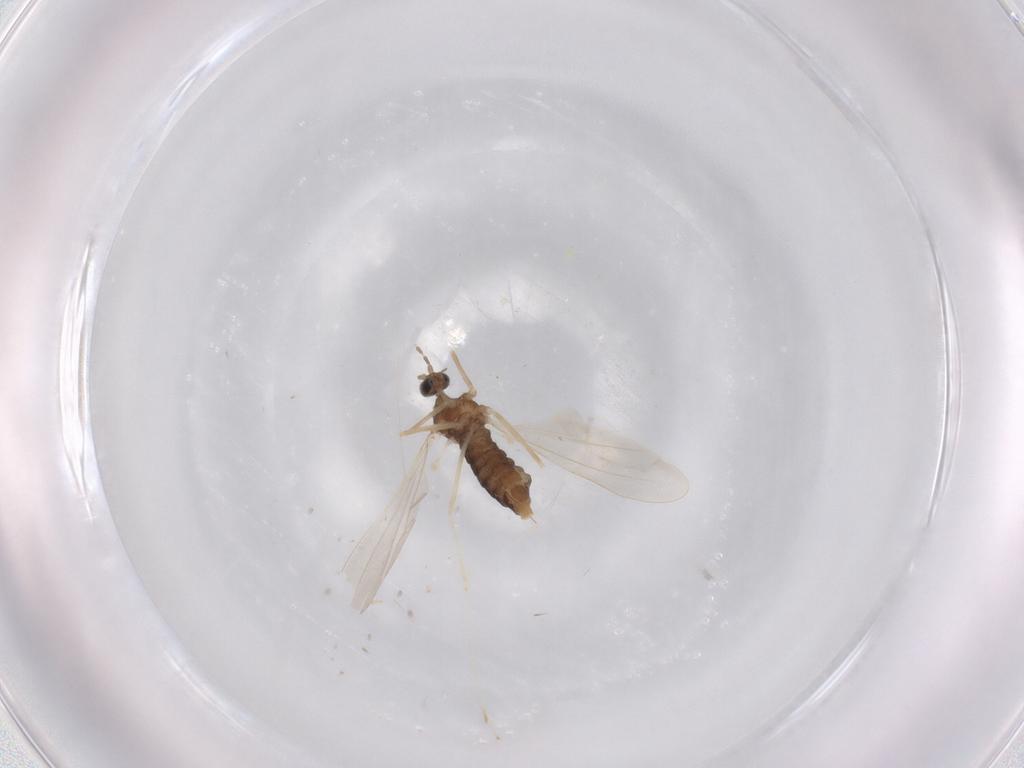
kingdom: Animalia
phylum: Arthropoda
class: Insecta
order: Diptera
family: Cecidomyiidae
